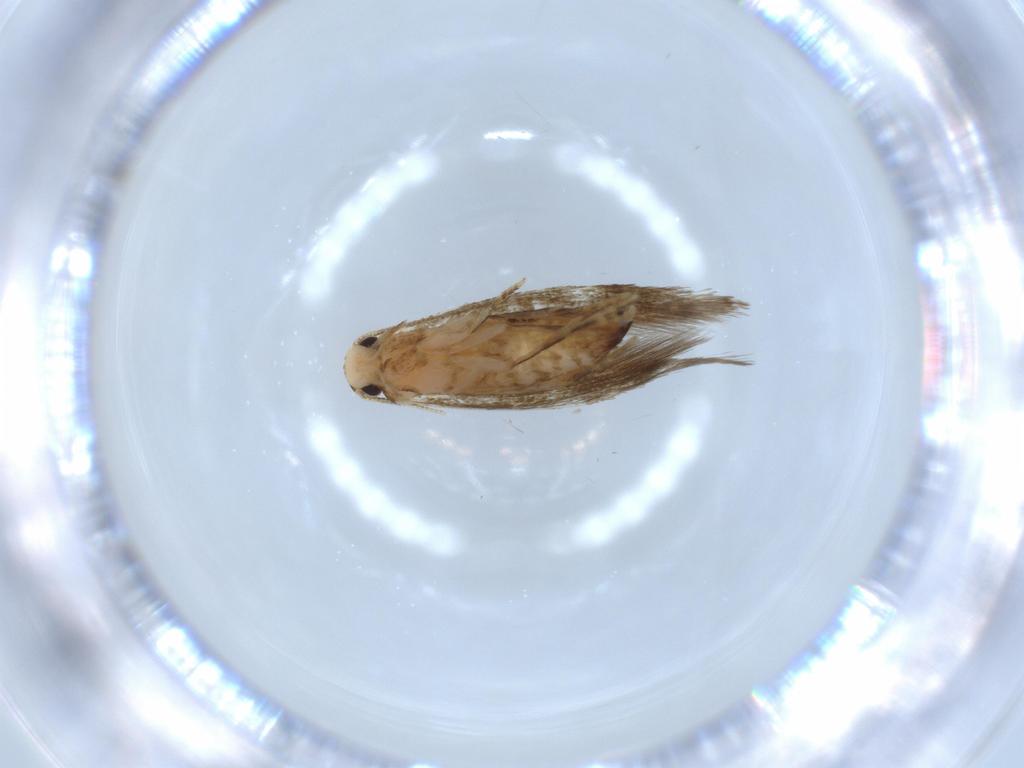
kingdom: Animalia
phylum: Arthropoda
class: Insecta
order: Lepidoptera
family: Tineidae
